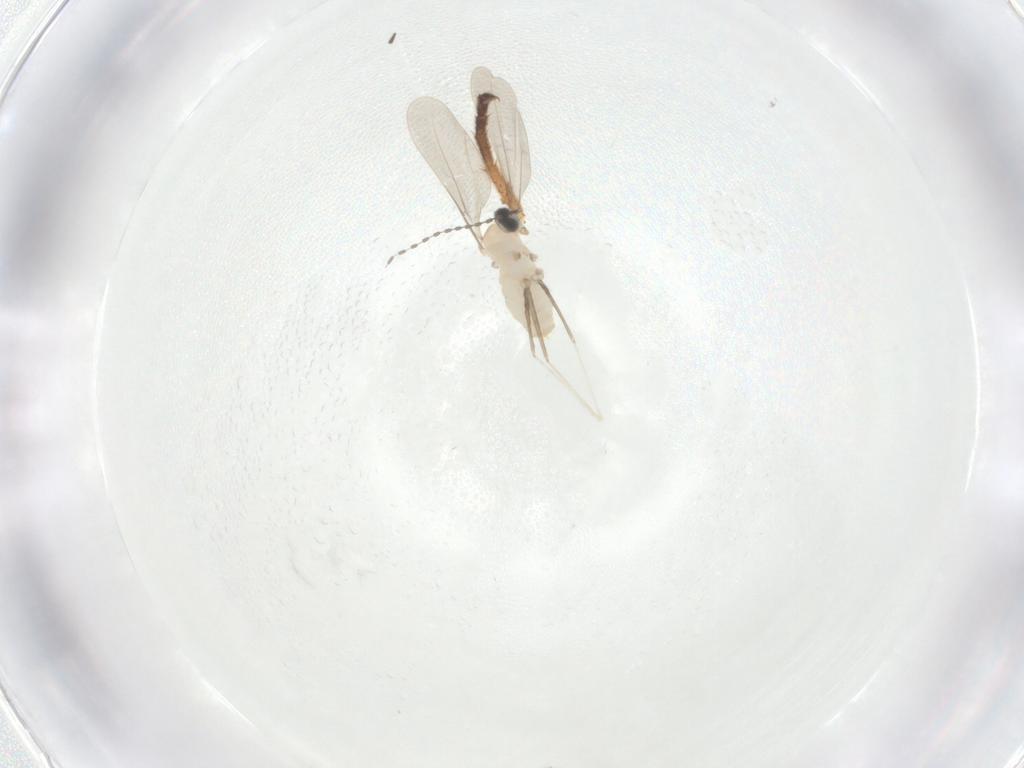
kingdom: Animalia
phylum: Arthropoda
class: Insecta
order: Diptera
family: Cecidomyiidae
